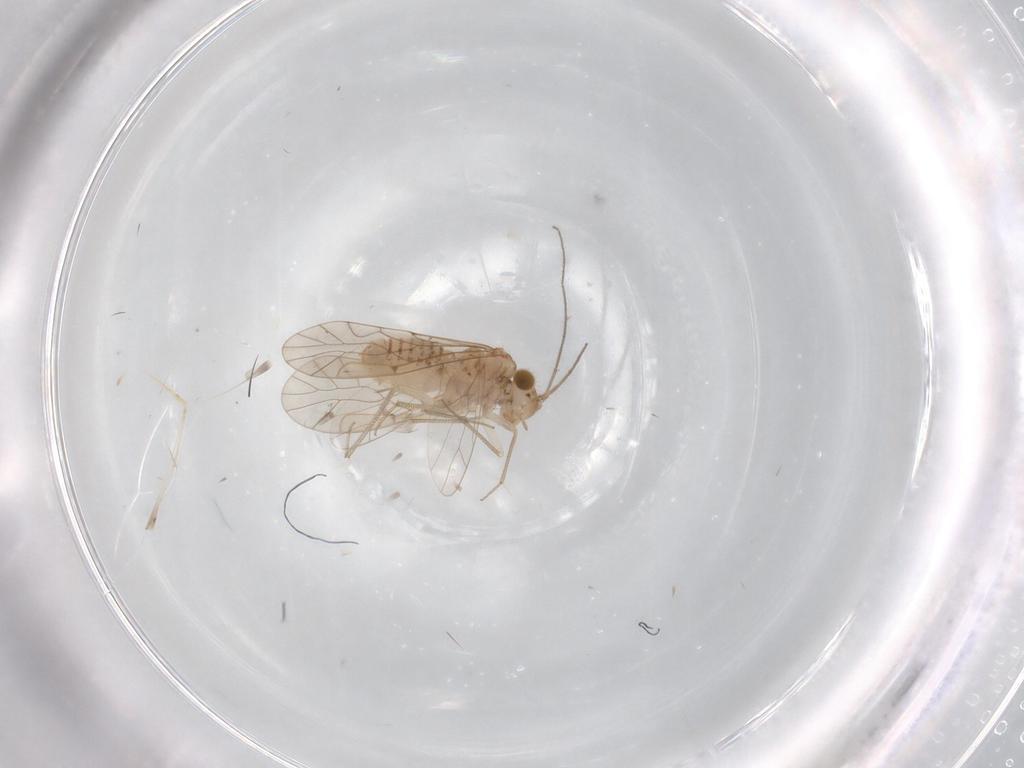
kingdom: Animalia
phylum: Arthropoda
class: Insecta
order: Psocodea
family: Lachesillidae
